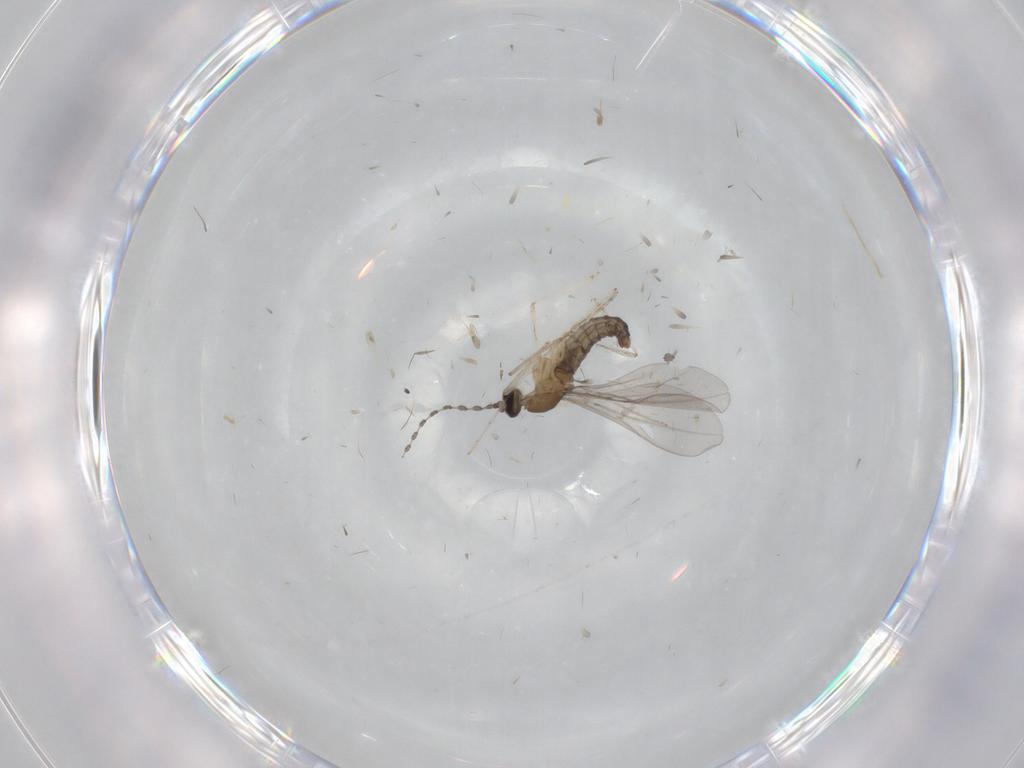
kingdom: Animalia
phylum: Arthropoda
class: Insecta
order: Diptera
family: Cecidomyiidae
